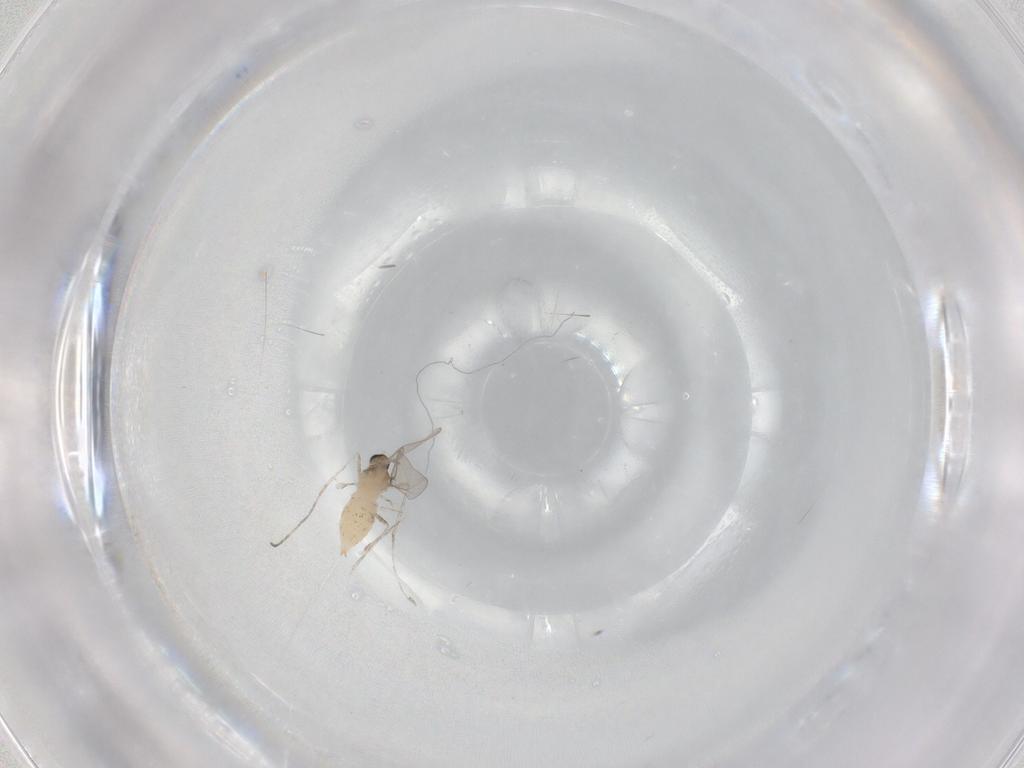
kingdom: Animalia
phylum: Arthropoda
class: Insecta
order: Diptera
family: Cecidomyiidae
